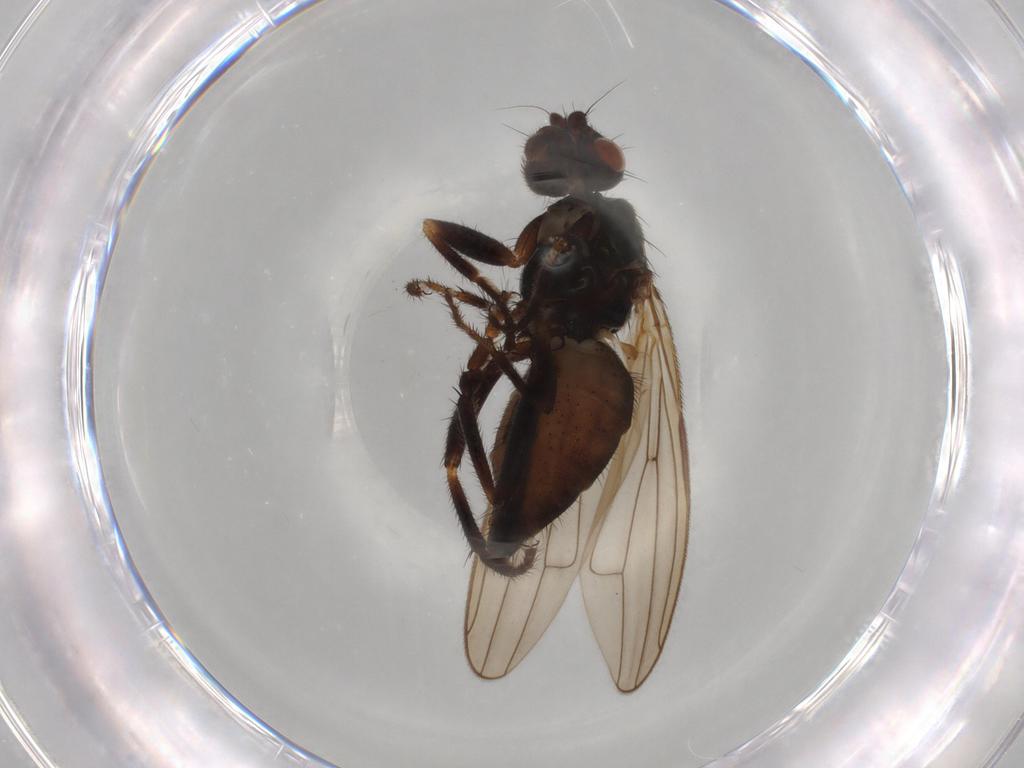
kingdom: Animalia
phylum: Arthropoda
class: Insecta
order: Diptera
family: Sphaeroceridae
